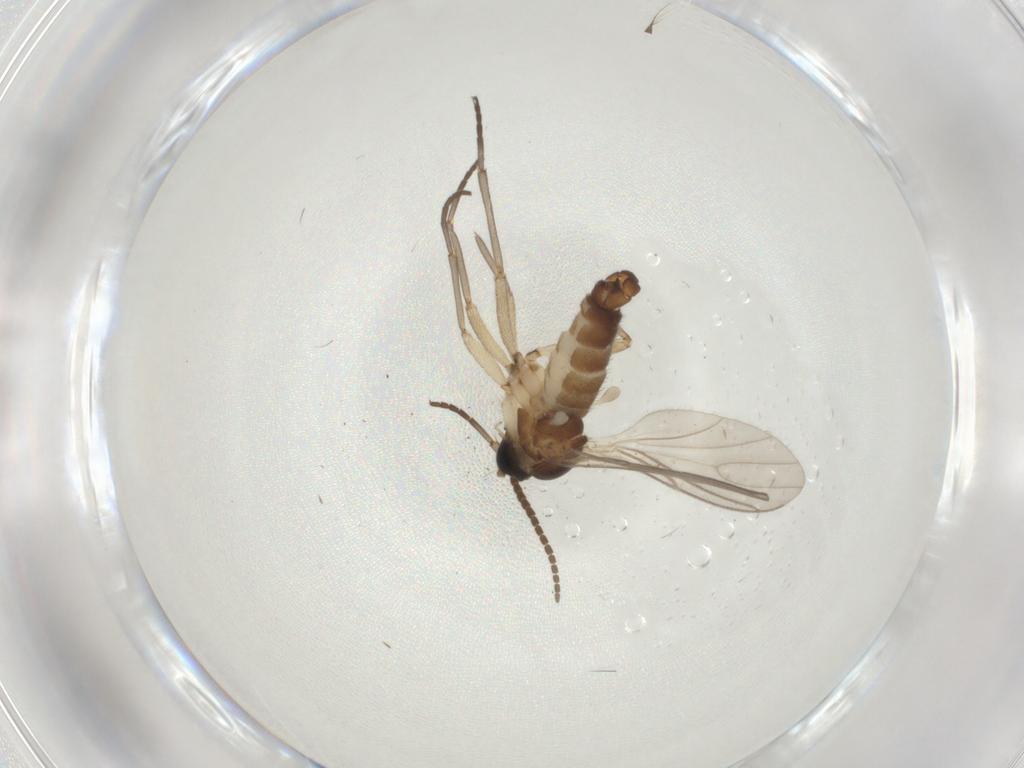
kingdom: Animalia
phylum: Arthropoda
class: Insecta
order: Diptera
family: Sciaridae
